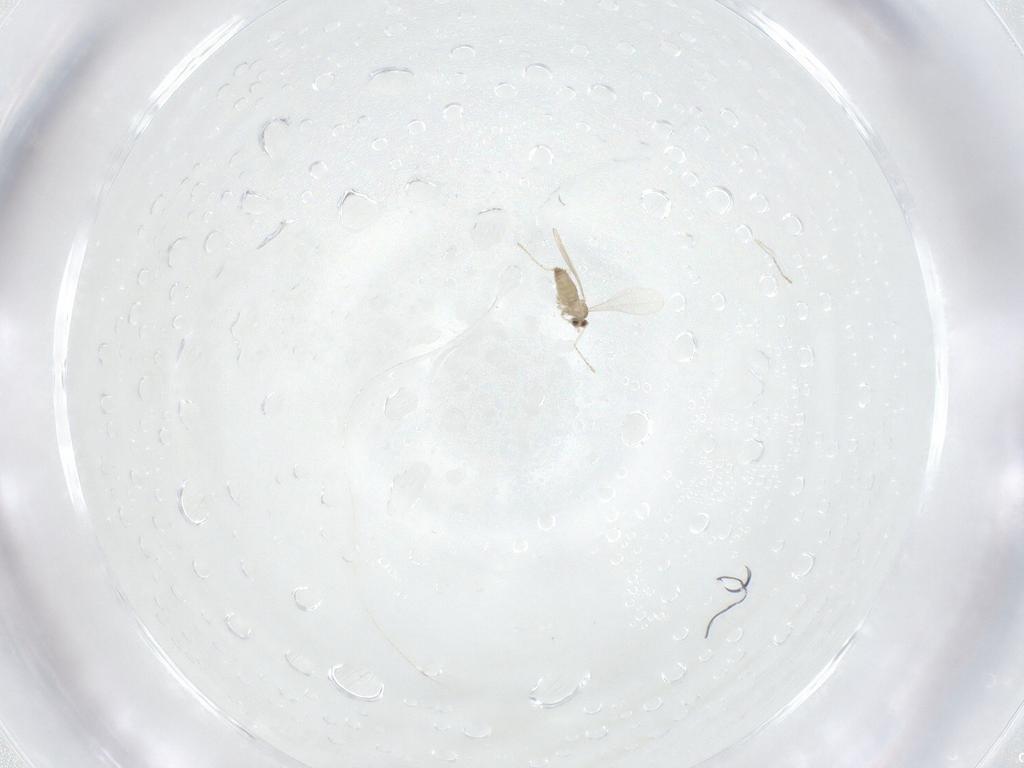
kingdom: Animalia
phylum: Arthropoda
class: Insecta
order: Diptera
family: Cecidomyiidae
